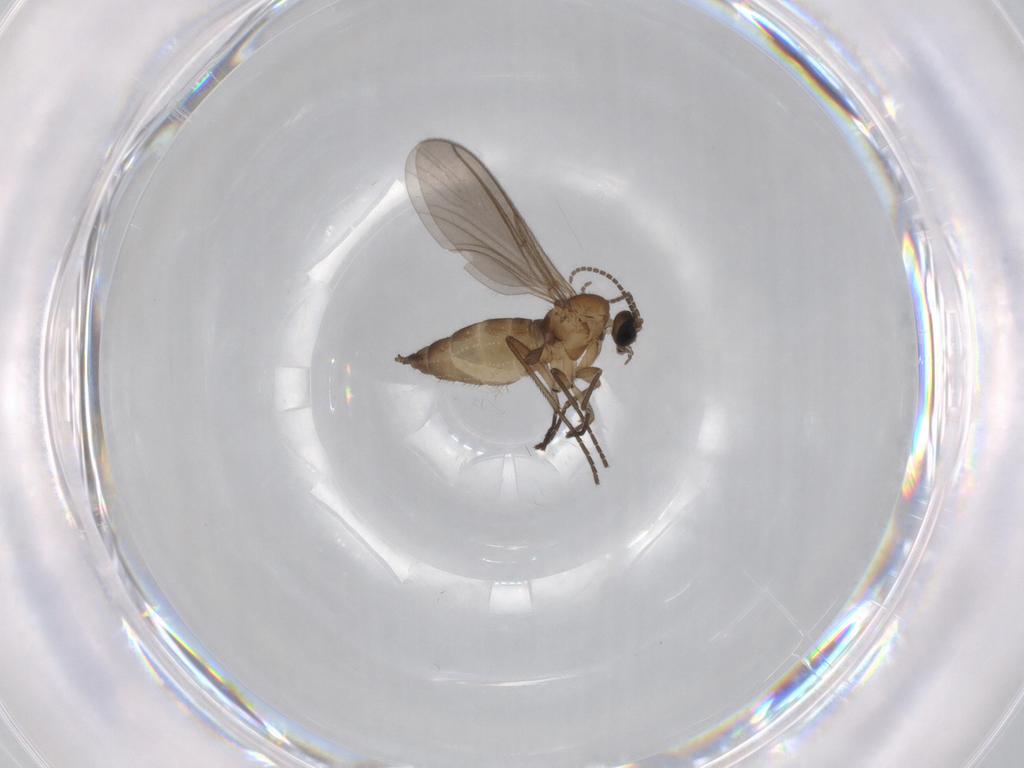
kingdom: Animalia
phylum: Arthropoda
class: Insecta
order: Diptera
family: Sciaridae
